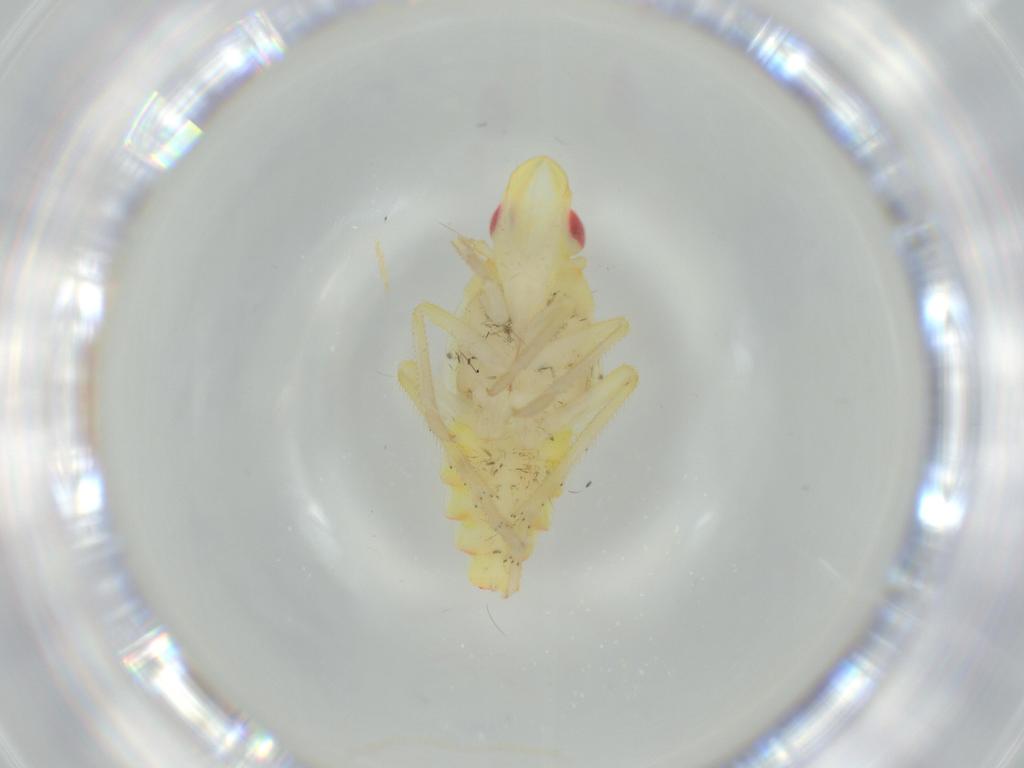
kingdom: Animalia
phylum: Arthropoda
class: Insecta
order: Hemiptera
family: Tropiduchidae
